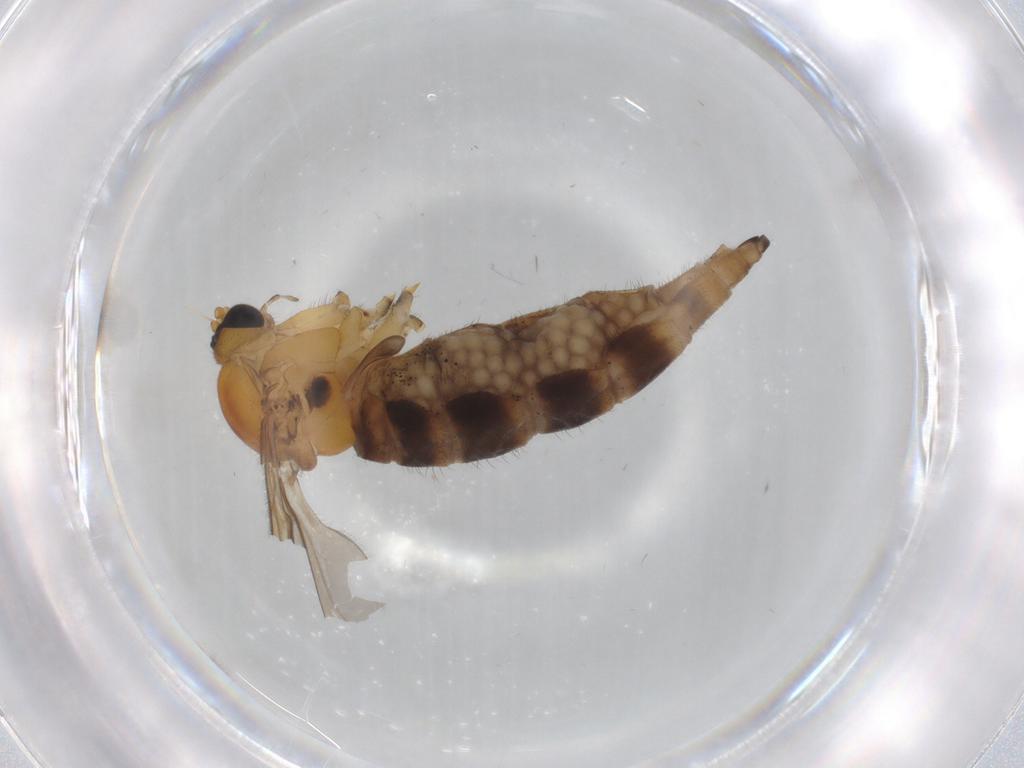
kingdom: Animalia
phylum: Arthropoda
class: Insecta
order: Diptera
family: Sciaridae
